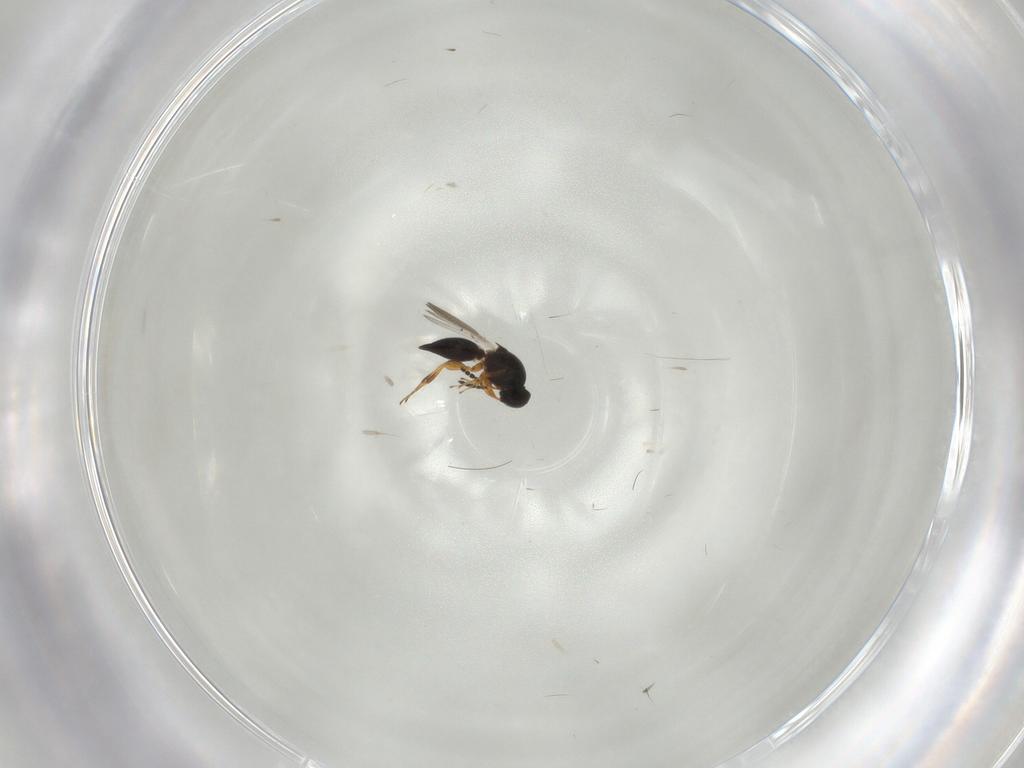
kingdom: Animalia
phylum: Arthropoda
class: Insecta
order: Hymenoptera
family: Platygastridae
